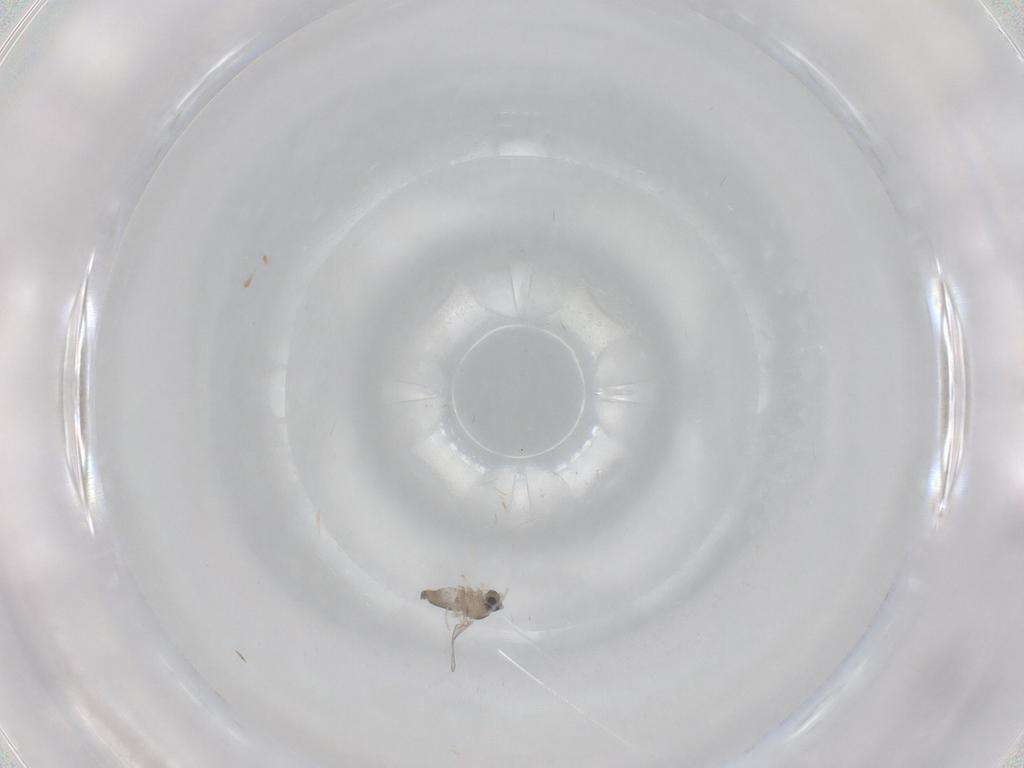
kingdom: Animalia
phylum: Arthropoda
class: Insecta
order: Diptera
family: Cecidomyiidae
